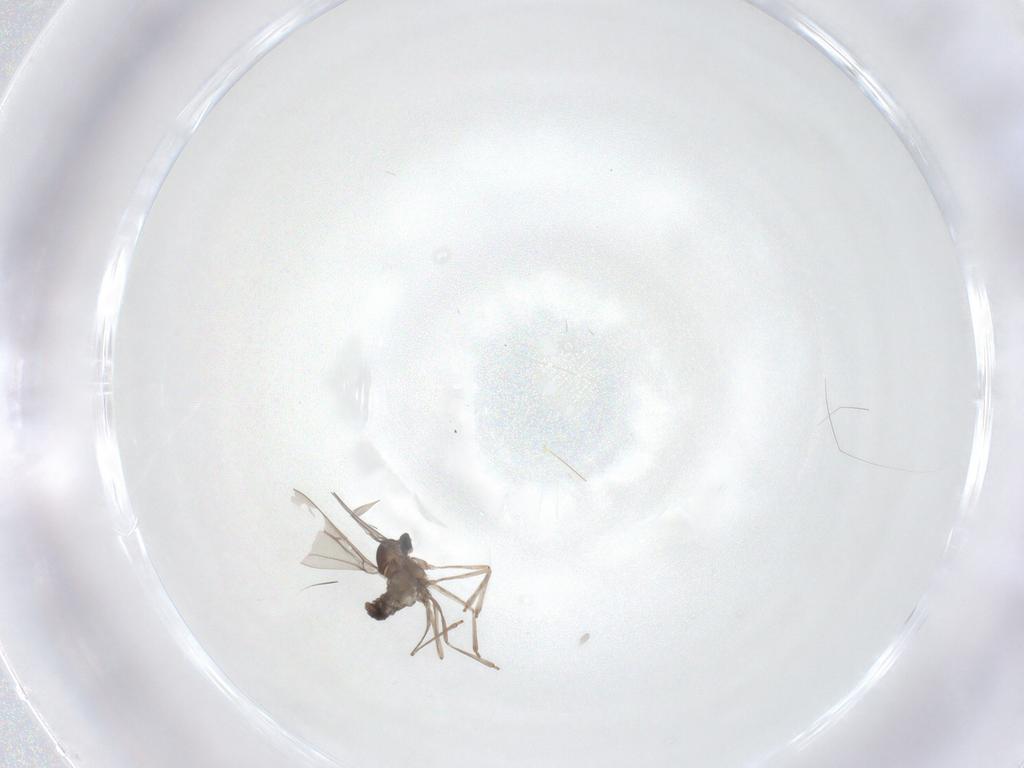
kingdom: Animalia
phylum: Arthropoda
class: Insecta
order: Diptera
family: Cecidomyiidae
